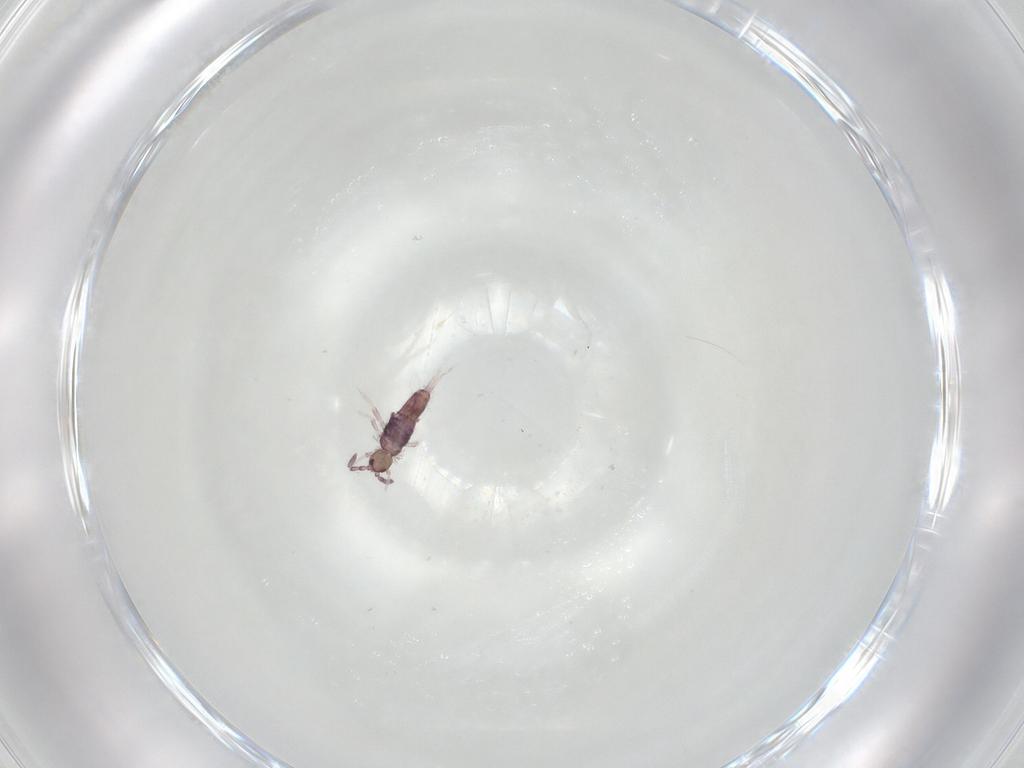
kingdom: Animalia
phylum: Arthropoda
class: Collembola
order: Entomobryomorpha
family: Entomobryidae
